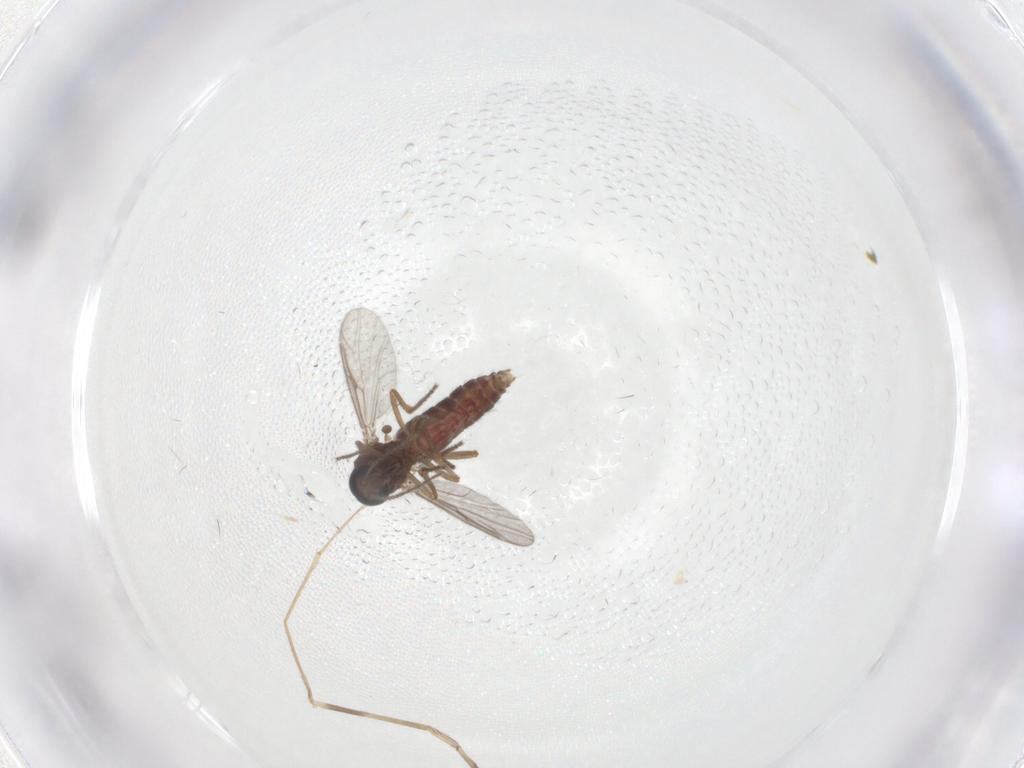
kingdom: Animalia
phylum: Arthropoda
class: Insecta
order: Diptera
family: Ceratopogonidae
